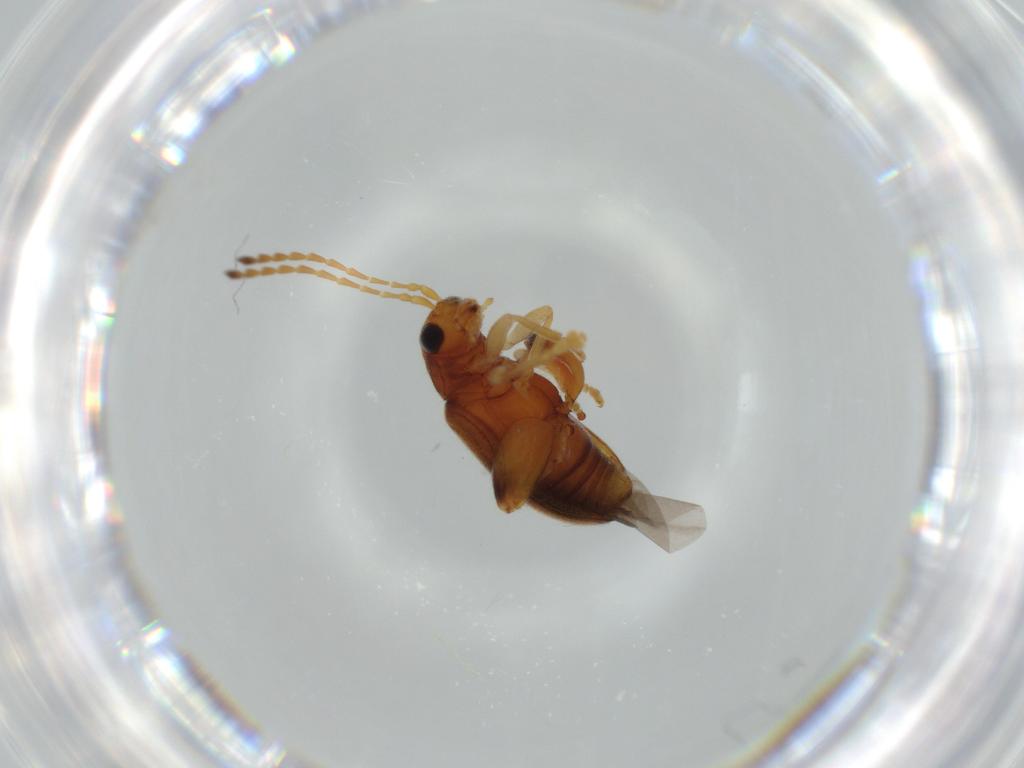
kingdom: Animalia
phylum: Arthropoda
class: Insecta
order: Coleoptera
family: Chrysomelidae
